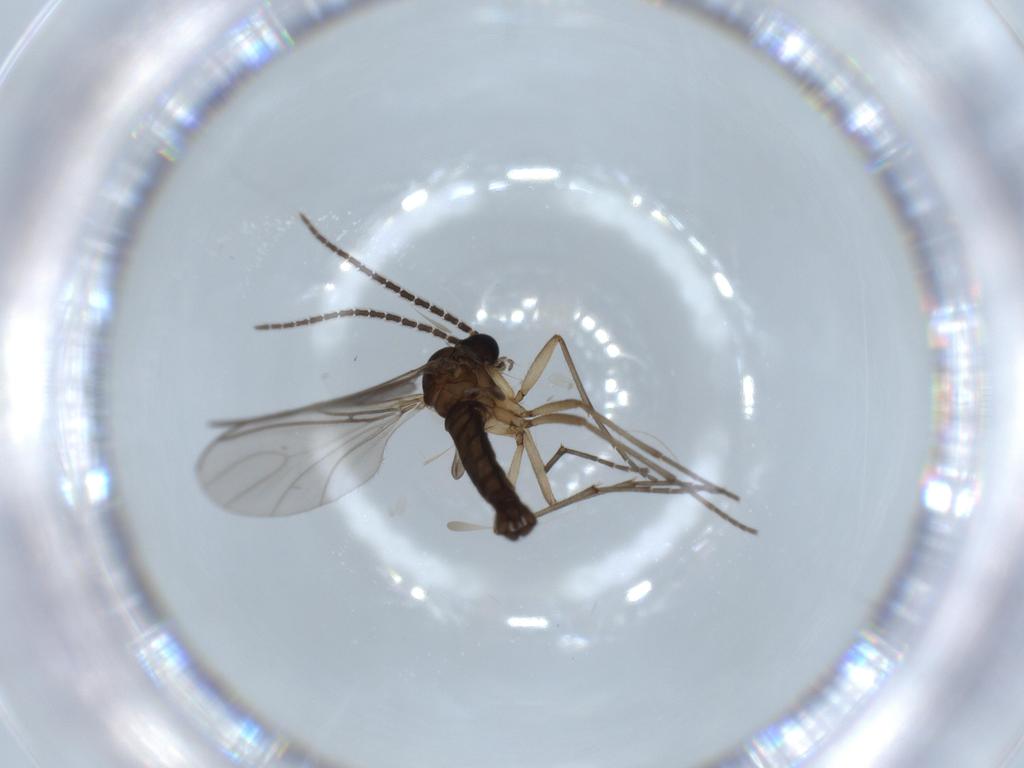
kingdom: Animalia
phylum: Arthropoda
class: Insecta
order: Diptera
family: Sciaridae
